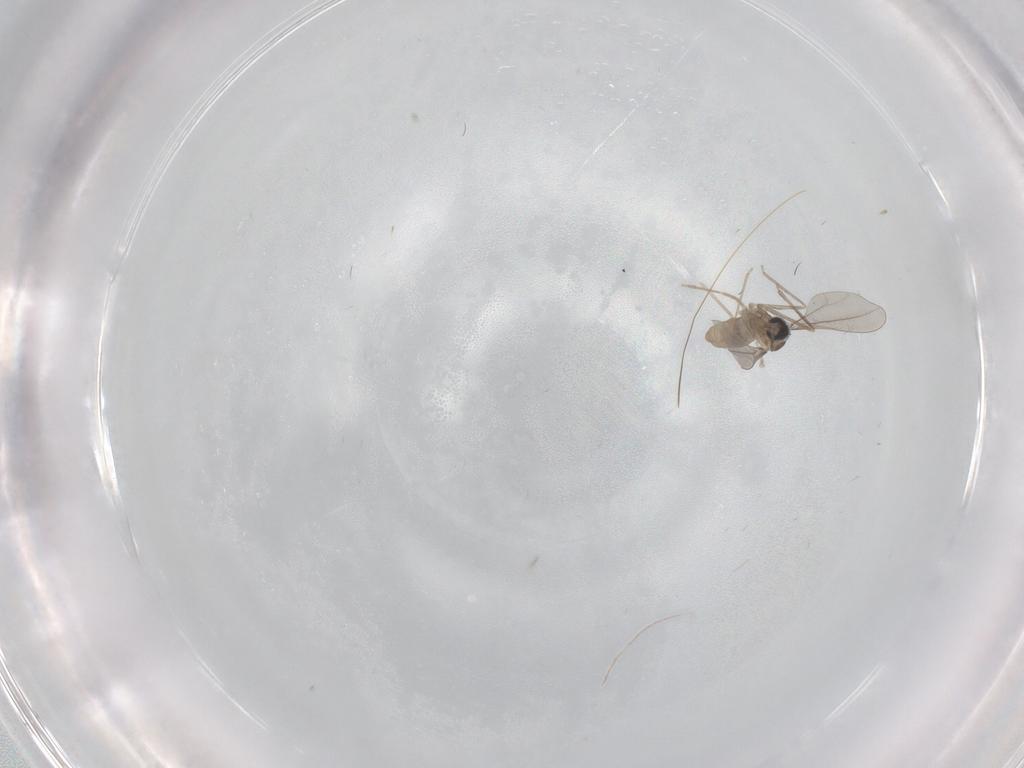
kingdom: Animalia
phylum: Arthropoda
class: Insecta
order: Diptera
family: Cecidomyiidae
